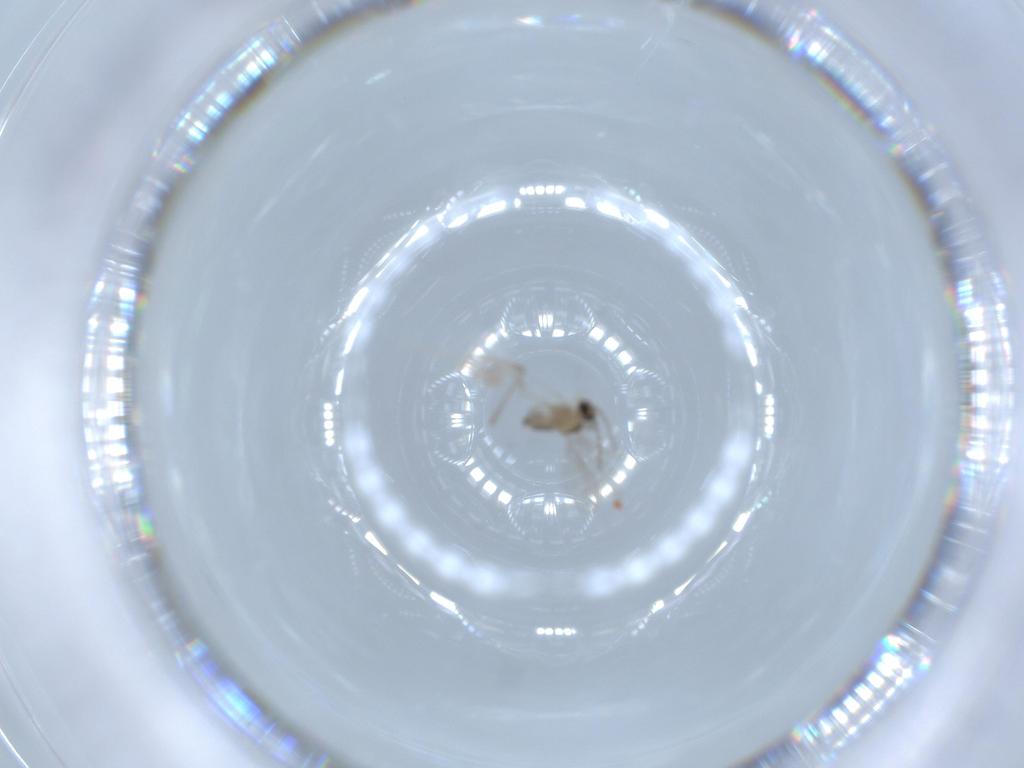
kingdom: Animalia
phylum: Arthropoda
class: Insecta
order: Diptera
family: Cecidomyiidae
